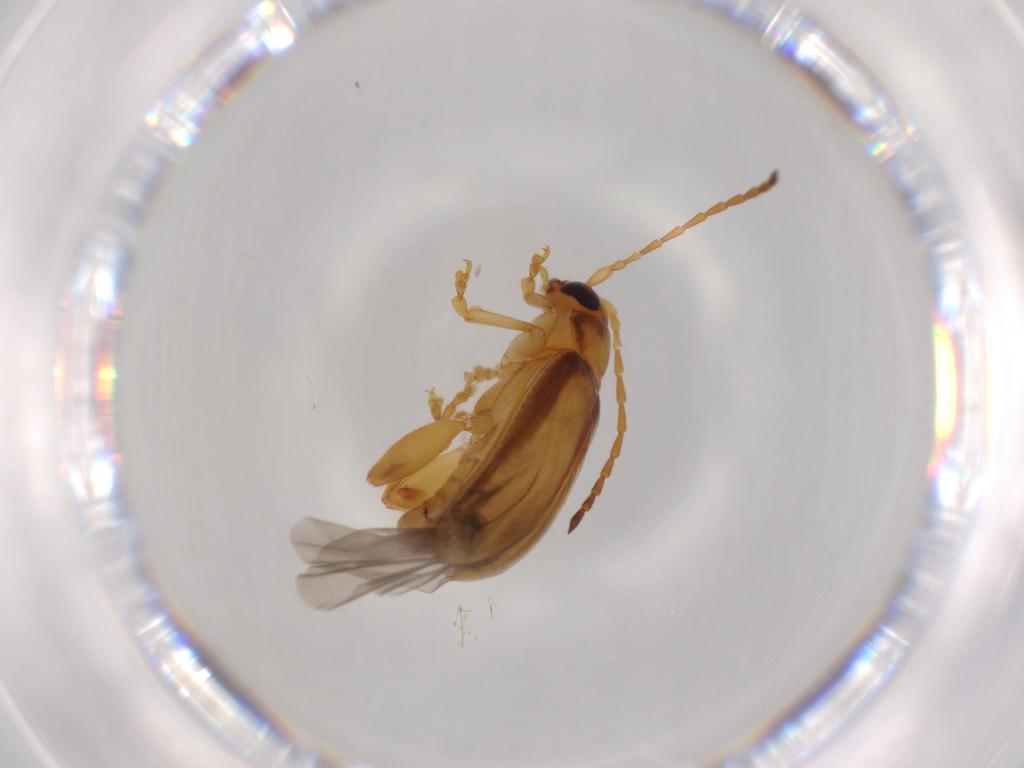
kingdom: Animalia
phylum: Arthropoda
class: Insecta
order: Coleoptera
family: Chrysomelidae
